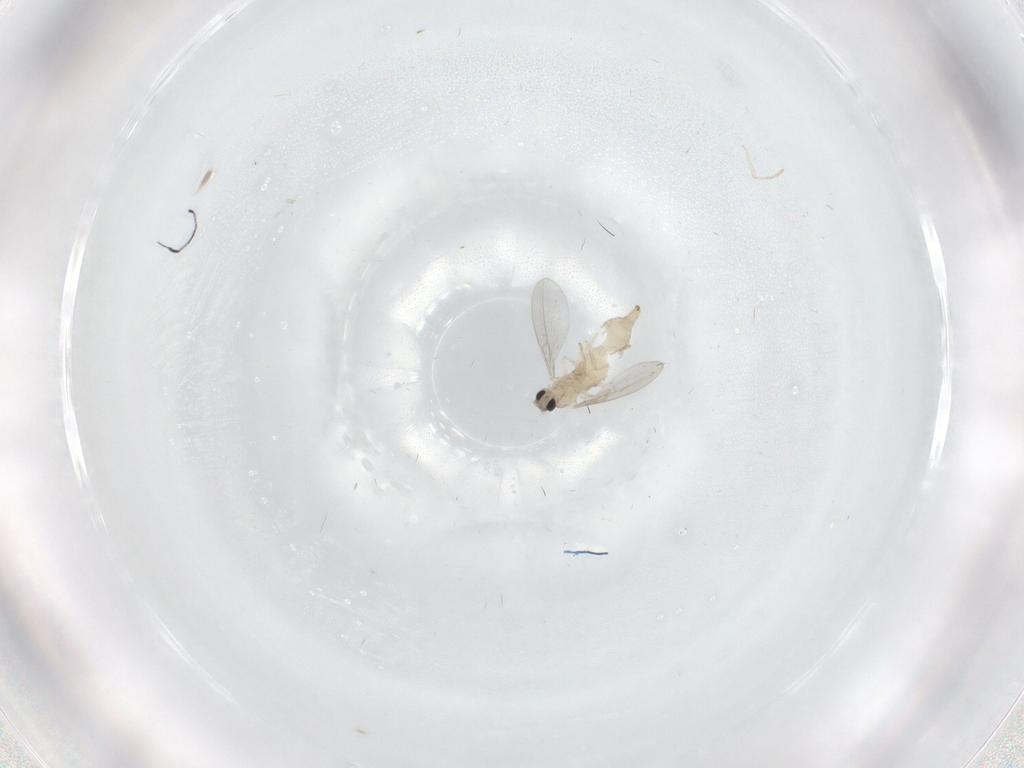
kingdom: Animalia
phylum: Arthropoda
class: Insecta
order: Diptera
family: Cecidomyiidae
